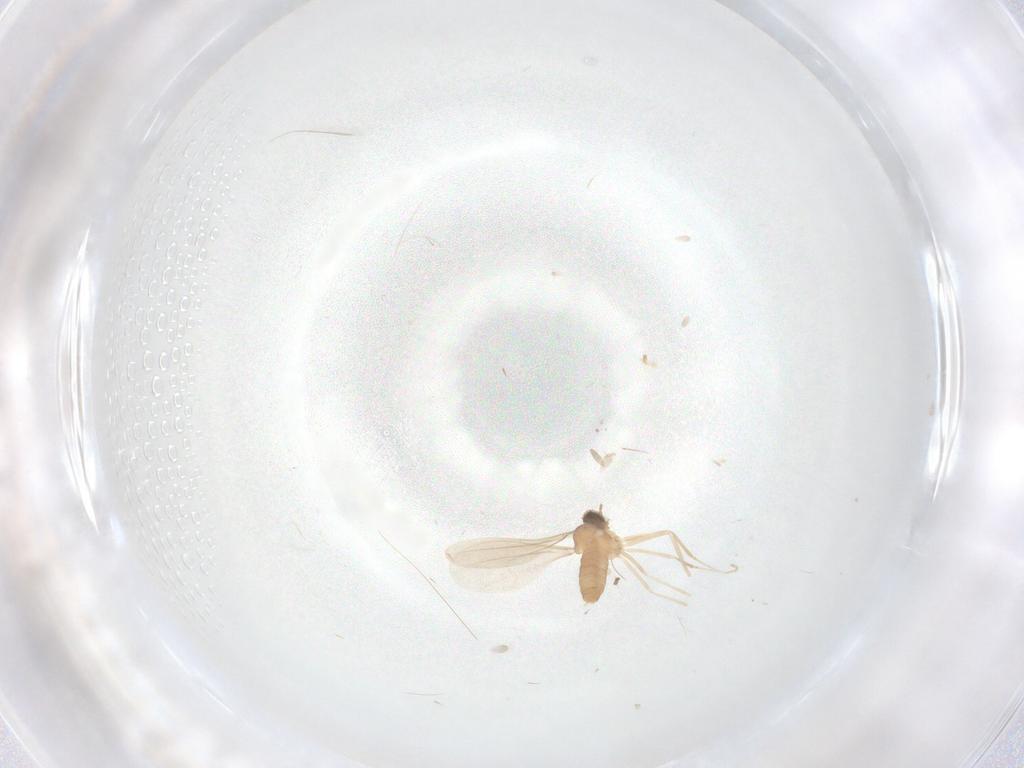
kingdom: Animalia
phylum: Arthropoda
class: Insecta
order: Diptera
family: Cecidomyiidae
